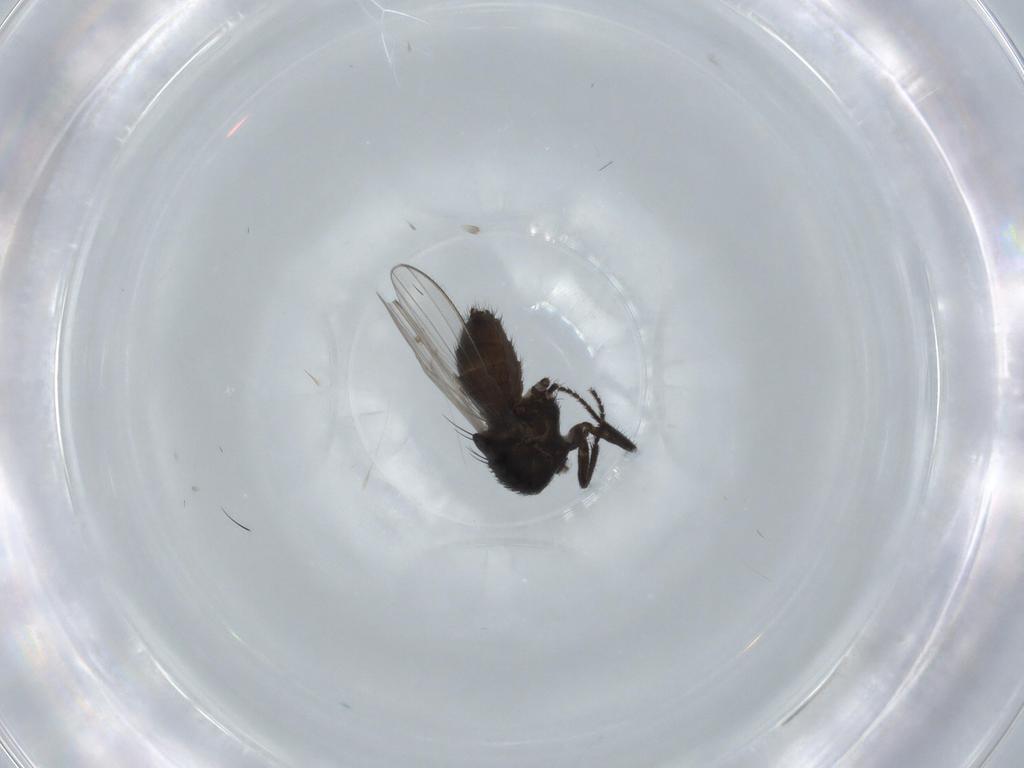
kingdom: Animalia
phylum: Arthropoda
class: Insecta
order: Diptera
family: Milichiidae
